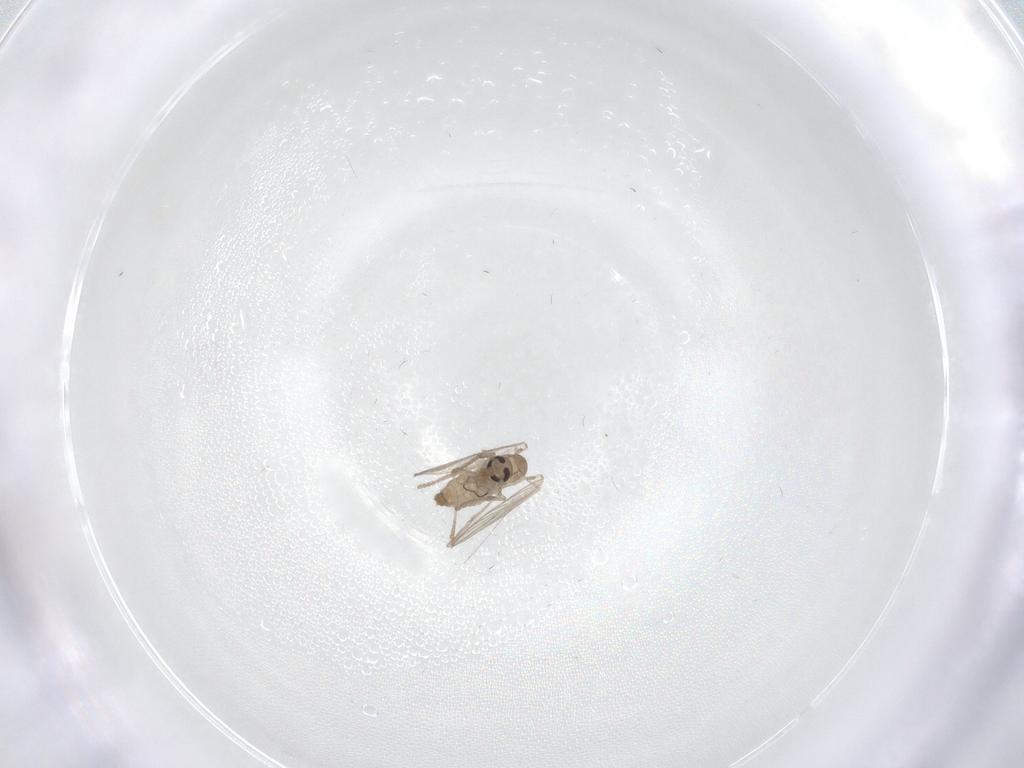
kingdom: Animalia
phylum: Arthropoda
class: Insecta
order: Diptera
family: Psychodidae
